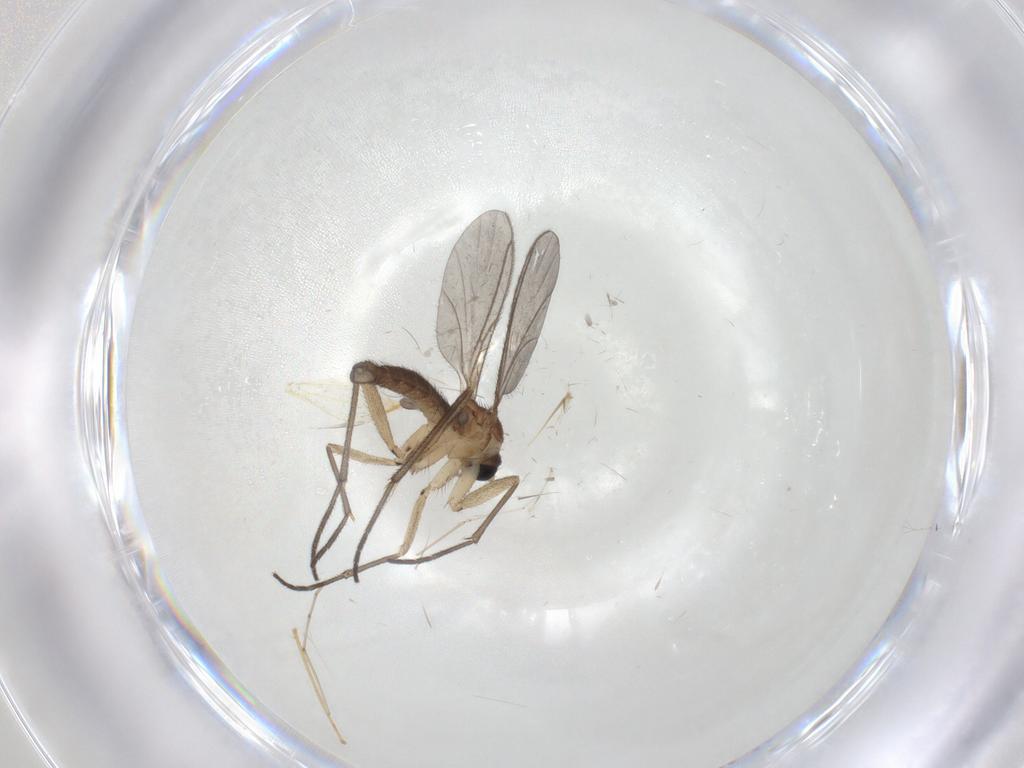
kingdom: Animalia
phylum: Arthropoda
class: Insecta
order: Diptera
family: Sciaridae
